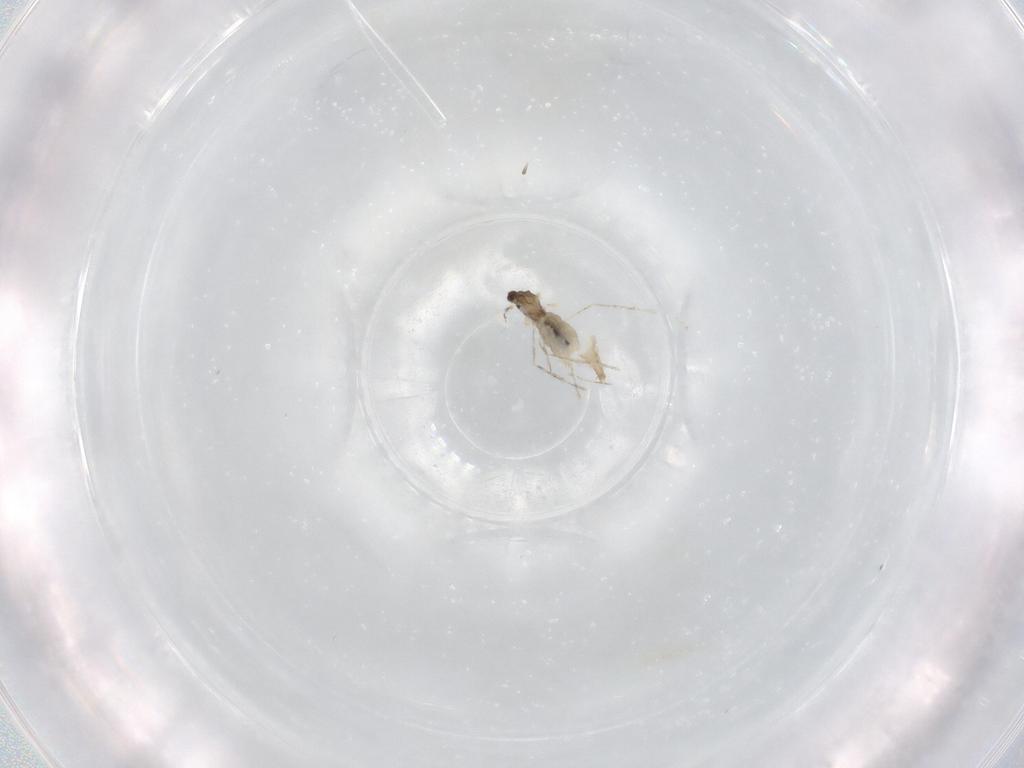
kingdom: Animalia
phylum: Arthropoda
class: Insecta
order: Diptera
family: Cecidomyiidae
